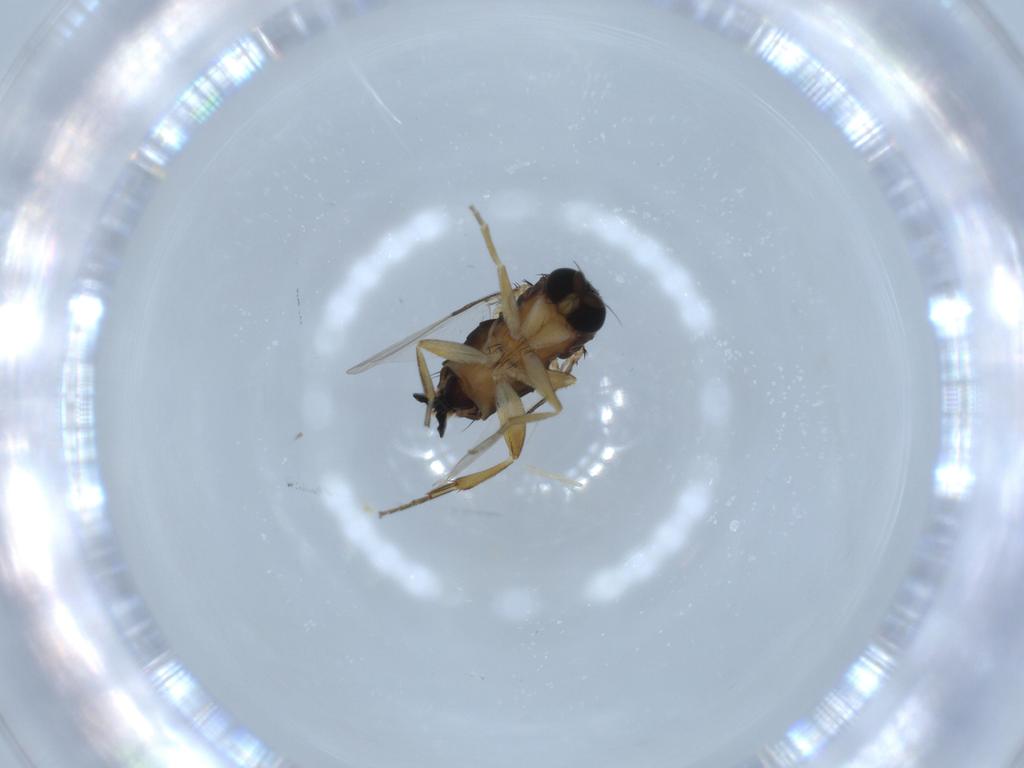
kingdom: Animalia
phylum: Arthropoda
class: Insecta
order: Diptera
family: Phoridae
